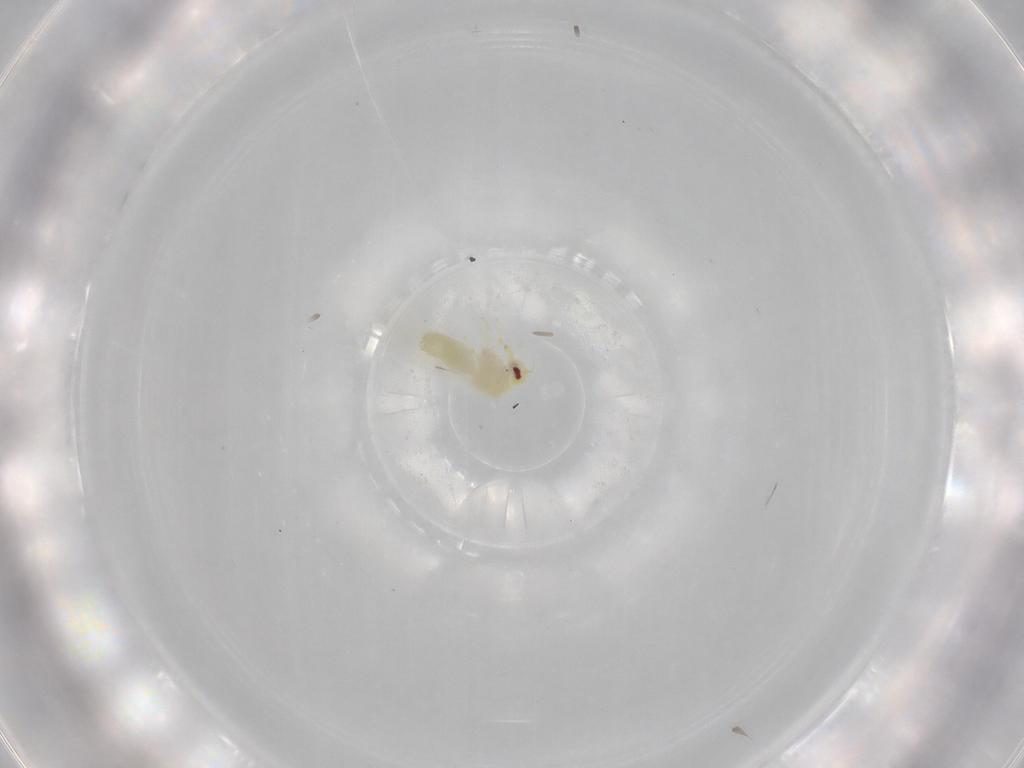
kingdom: Animalia
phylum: Arthropoda
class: Insecta
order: Hemiptera
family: Aleyrodidae
